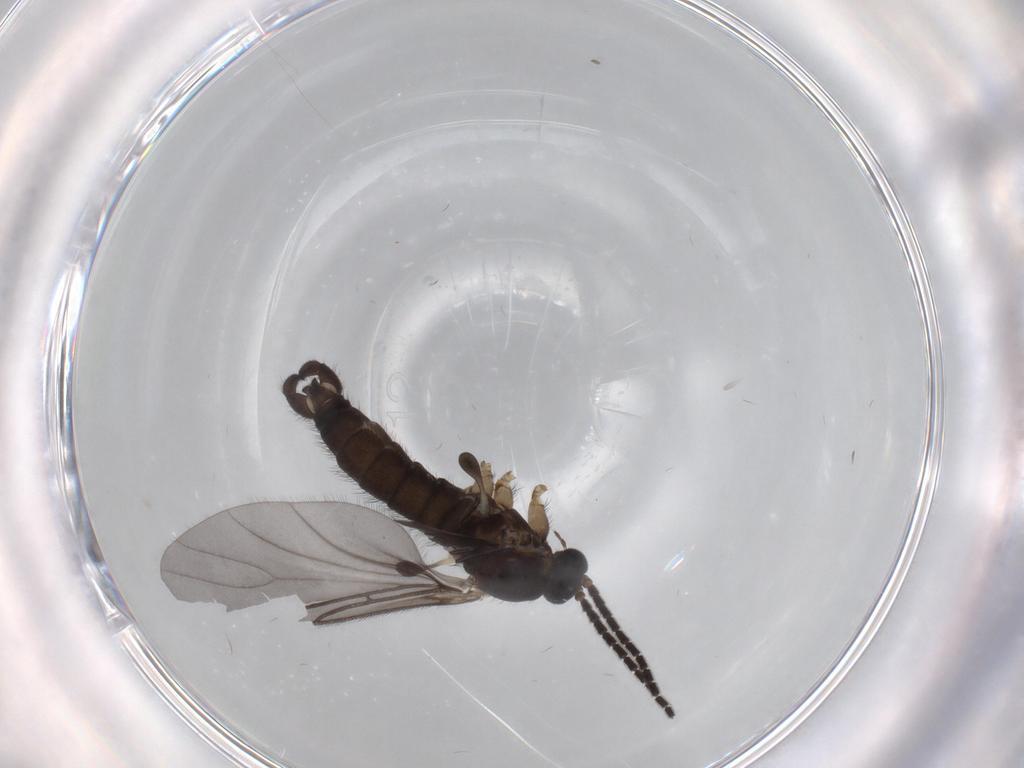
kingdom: Animalia
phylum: Arthropoda
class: Insecta
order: Diptera
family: Sciaridae
